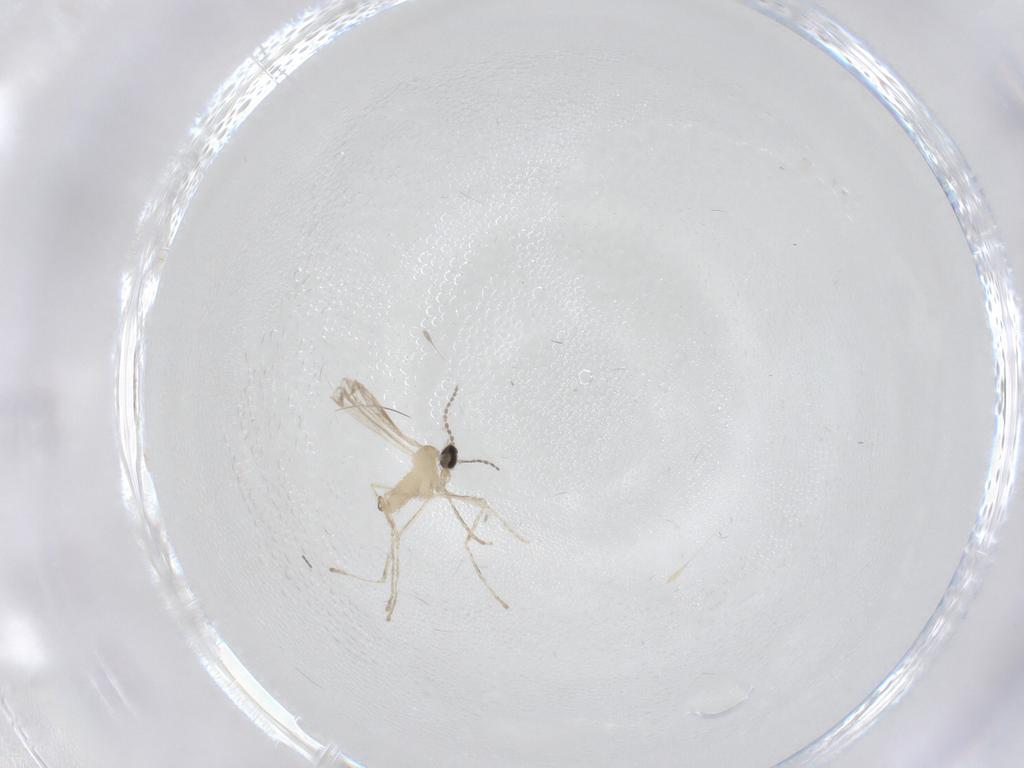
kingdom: Animalia
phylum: Arthropoda
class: Insecta
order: Diptera
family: Cecidomyiidae
